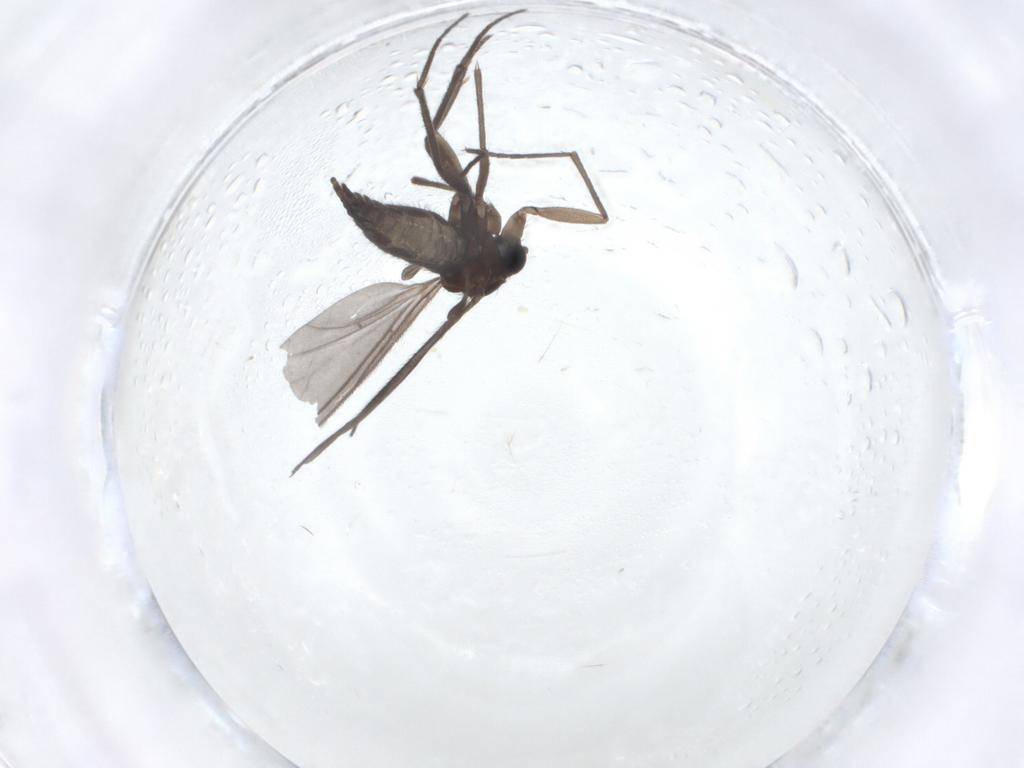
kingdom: Animalia
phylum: Arthropoda
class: Insecta
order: Diptera
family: Sciaridae
